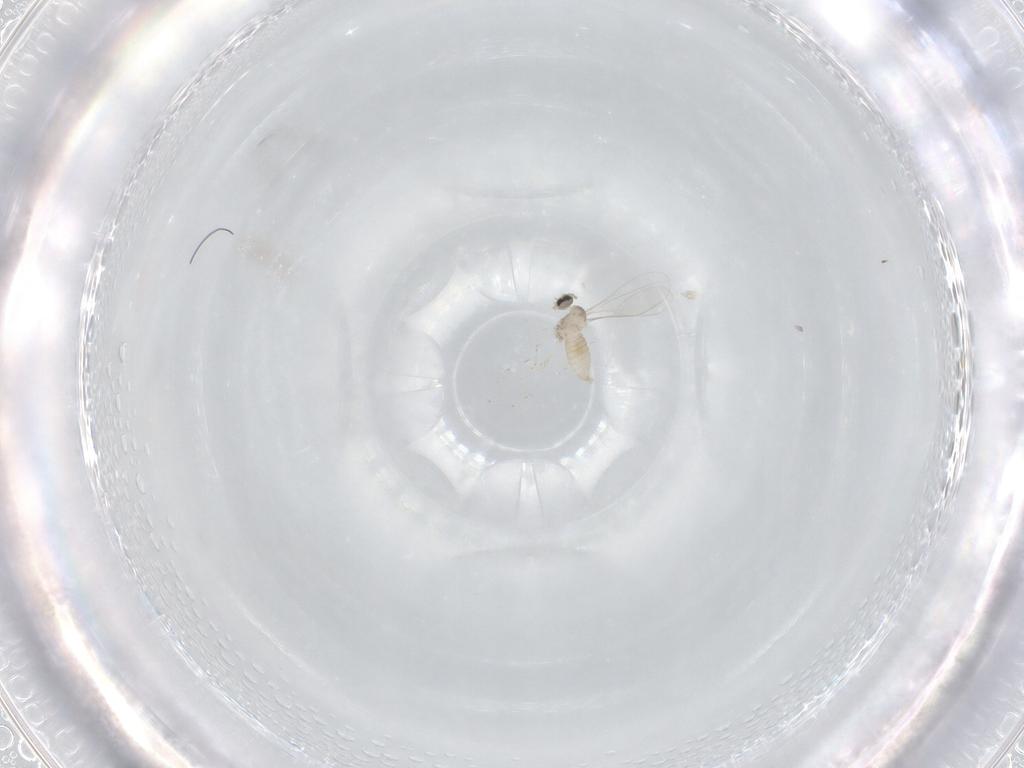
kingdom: Animalia
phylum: Arthropoda
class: Insecta
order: Diptera
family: Cecidomyiidae
